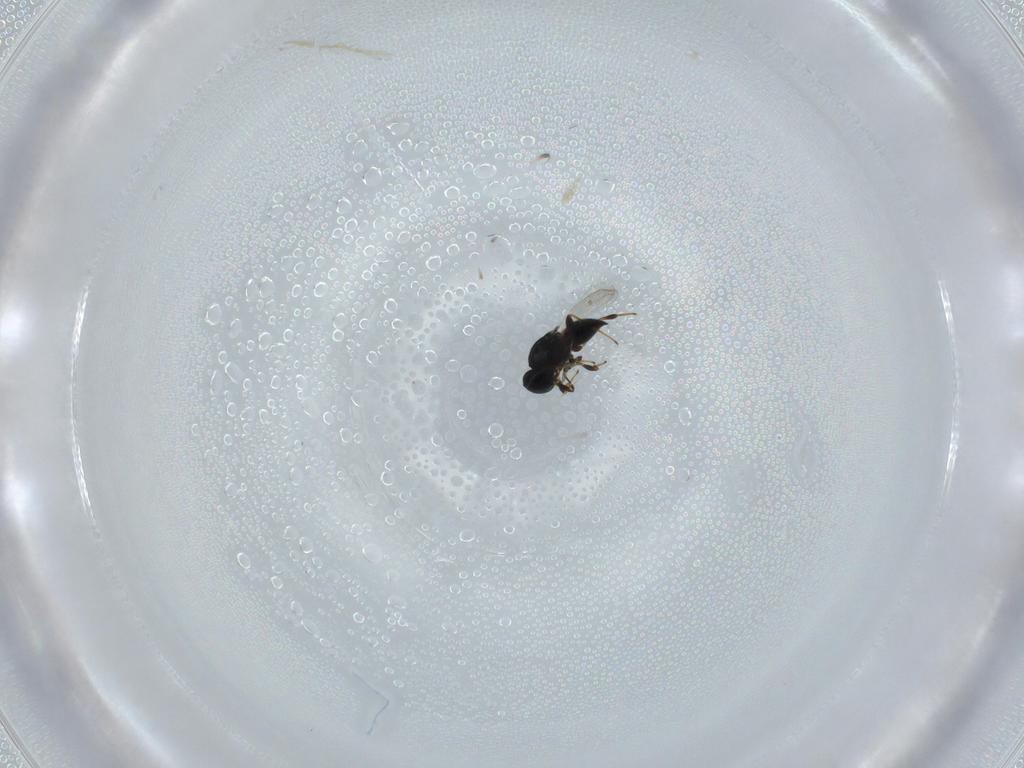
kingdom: Animalia
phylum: Arthropoda
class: Insecta
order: Hymenoptera
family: Platygastridae
